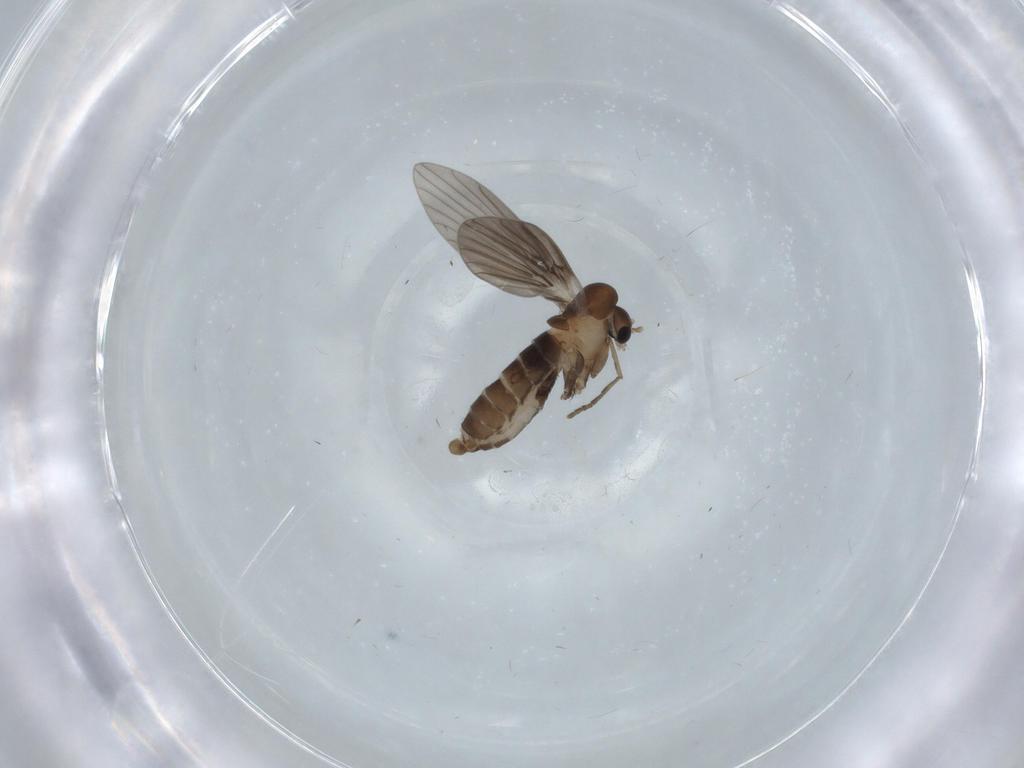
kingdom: Animalia
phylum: Arthropoda
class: Insecta
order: Diptera
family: Psychodidae
